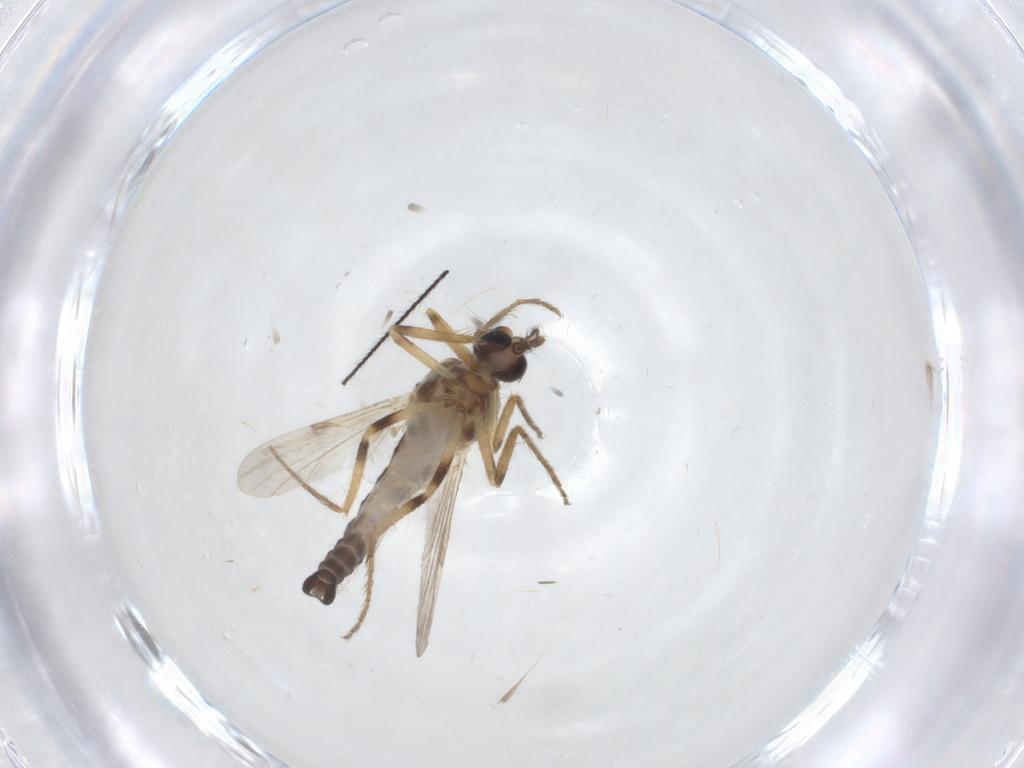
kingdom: Animalia
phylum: Arthropoda
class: Insecta
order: Diptera
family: Ceratopogonidae
